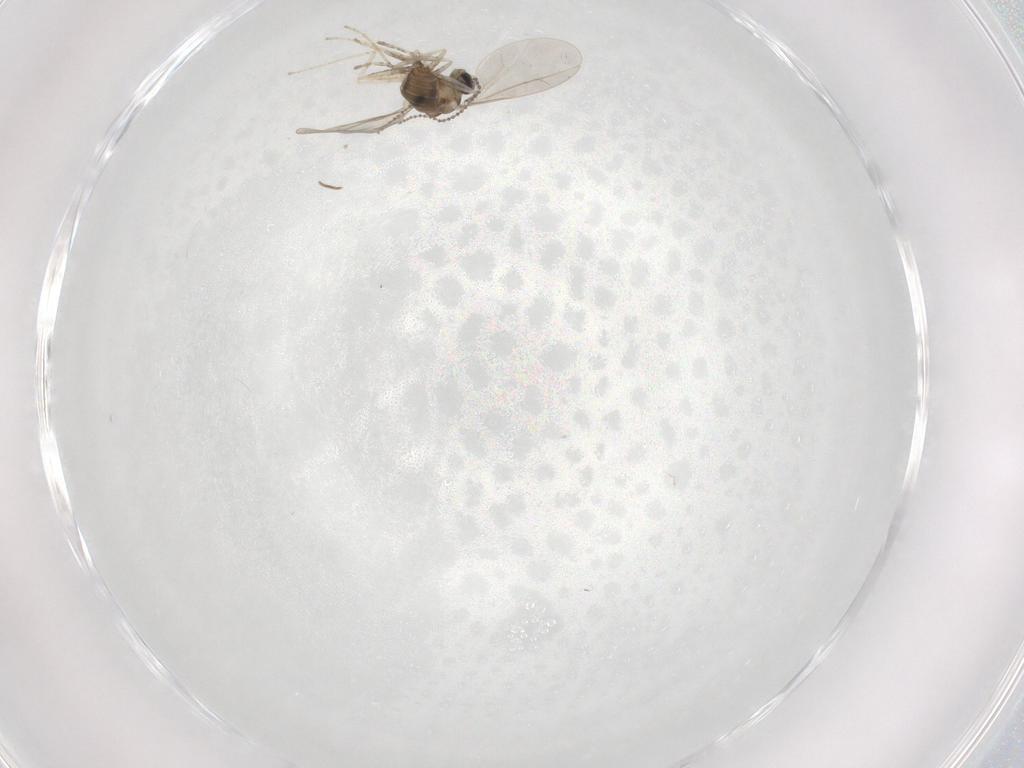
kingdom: Animalia
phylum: Arthropoda
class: Insecta
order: Diptera
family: Cecidomyiidae
